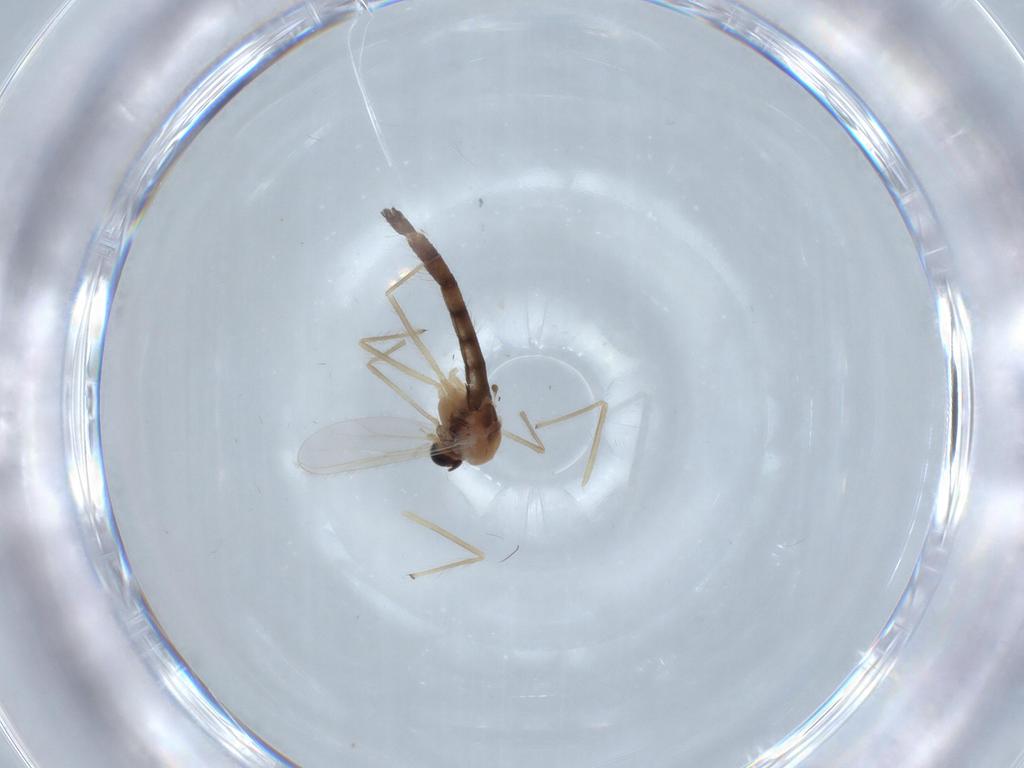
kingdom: Animalia
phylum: Arthropoda
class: Insecta
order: Diptera
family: Chironomidae
